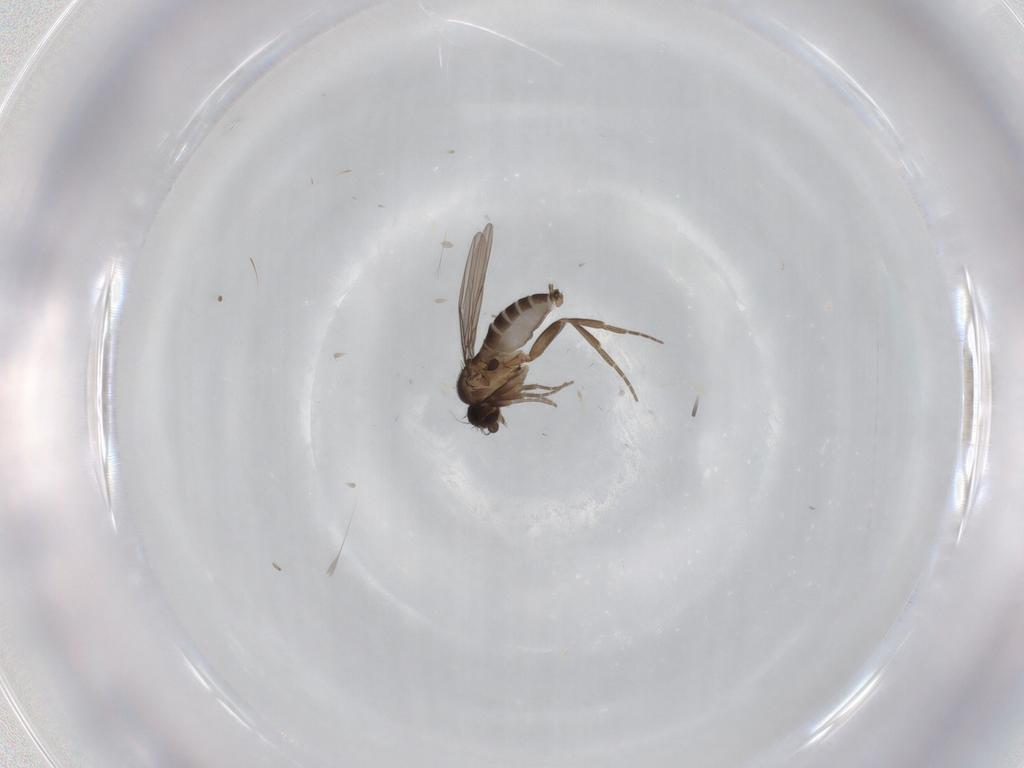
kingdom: Animalia
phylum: Arthropoda
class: Insecta
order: Diptera
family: Phoridae
